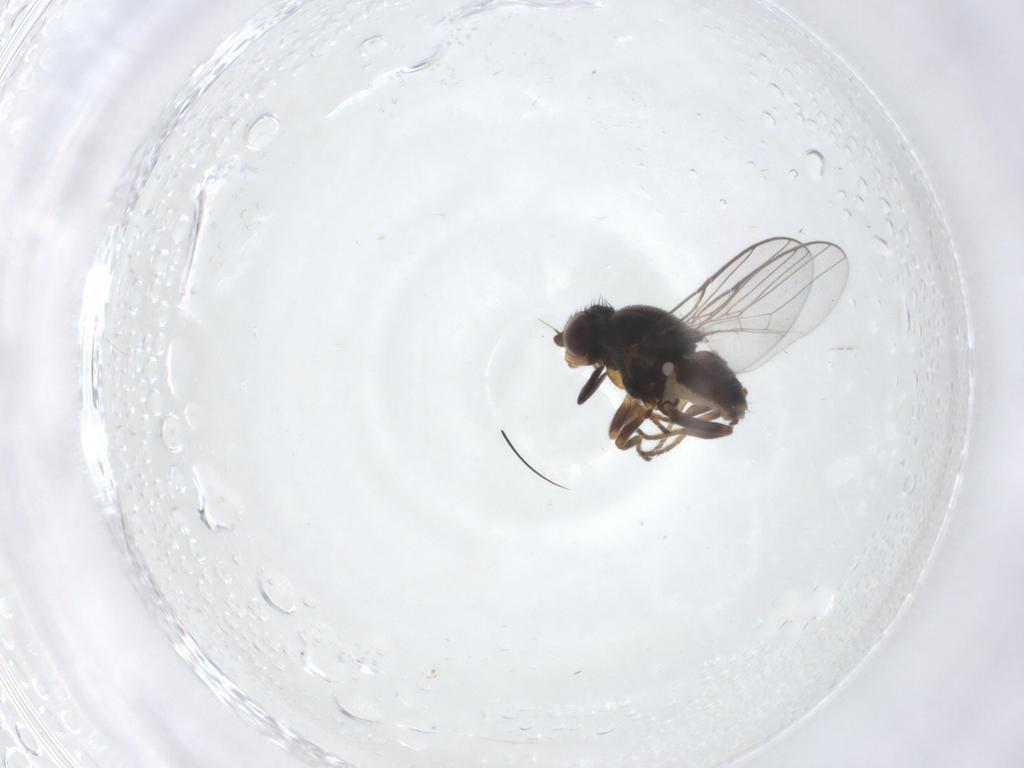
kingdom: Animalia
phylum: Arthropoda
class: Insecta
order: Diptera
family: Chloropidae
